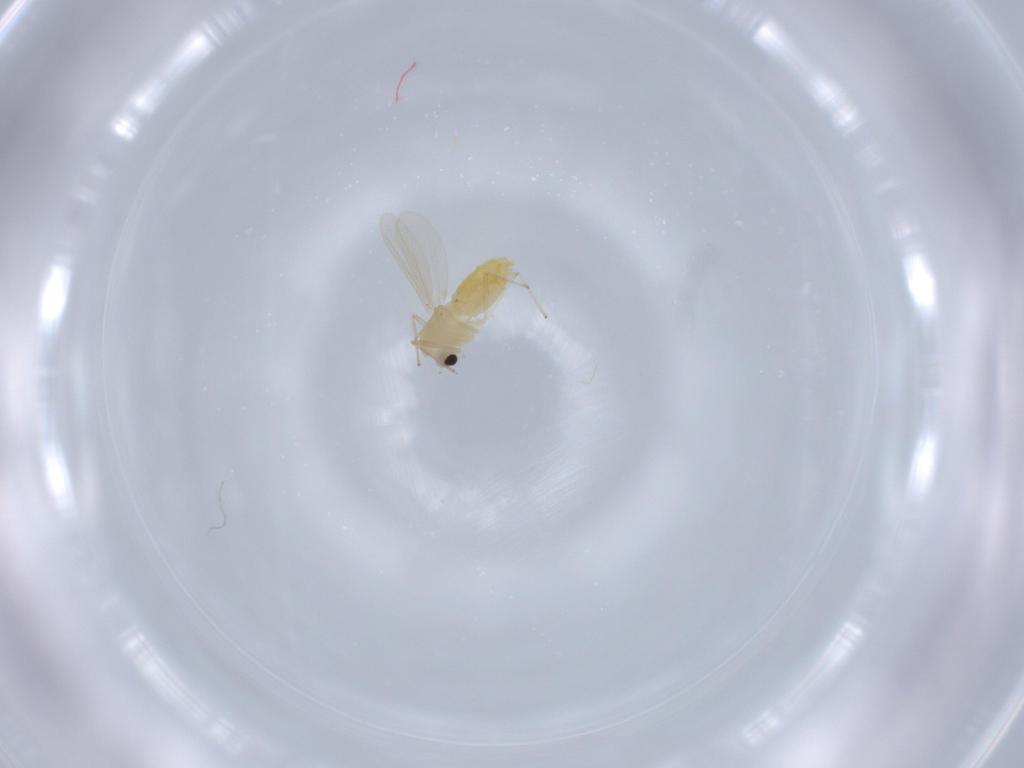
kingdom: Animalia
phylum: Arthropoda
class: Insecta
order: Diptera
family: Chironomidae
